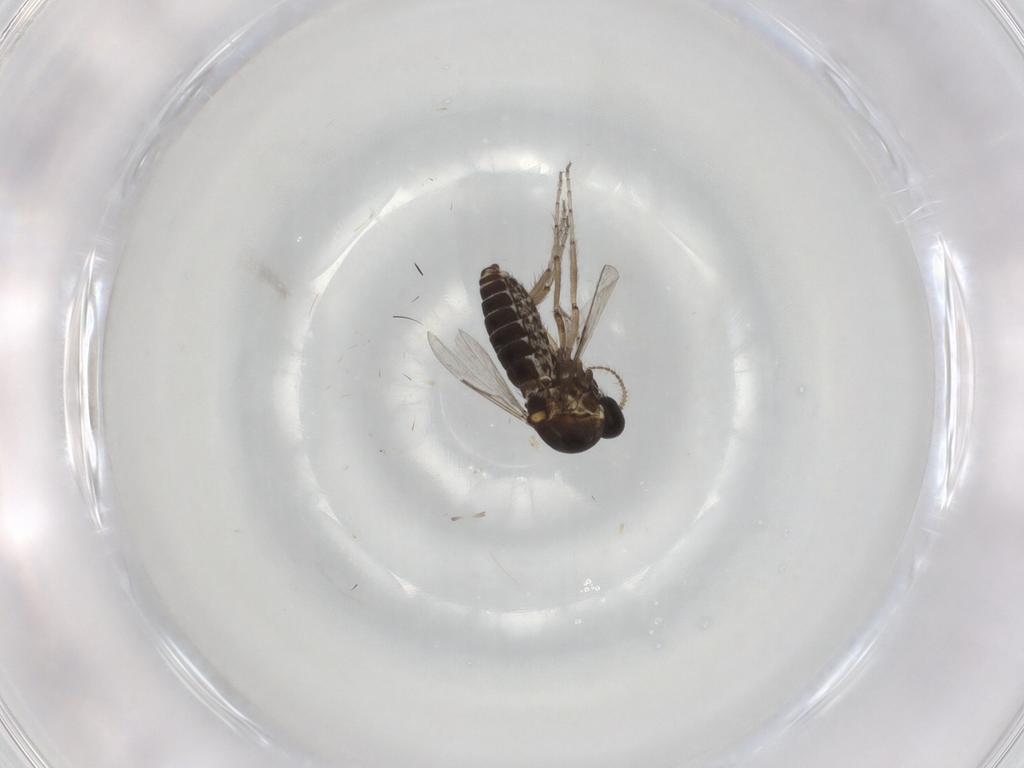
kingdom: Animalia
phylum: Arthropoda
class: Insecta
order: Diptera
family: Ceratopogonidae
